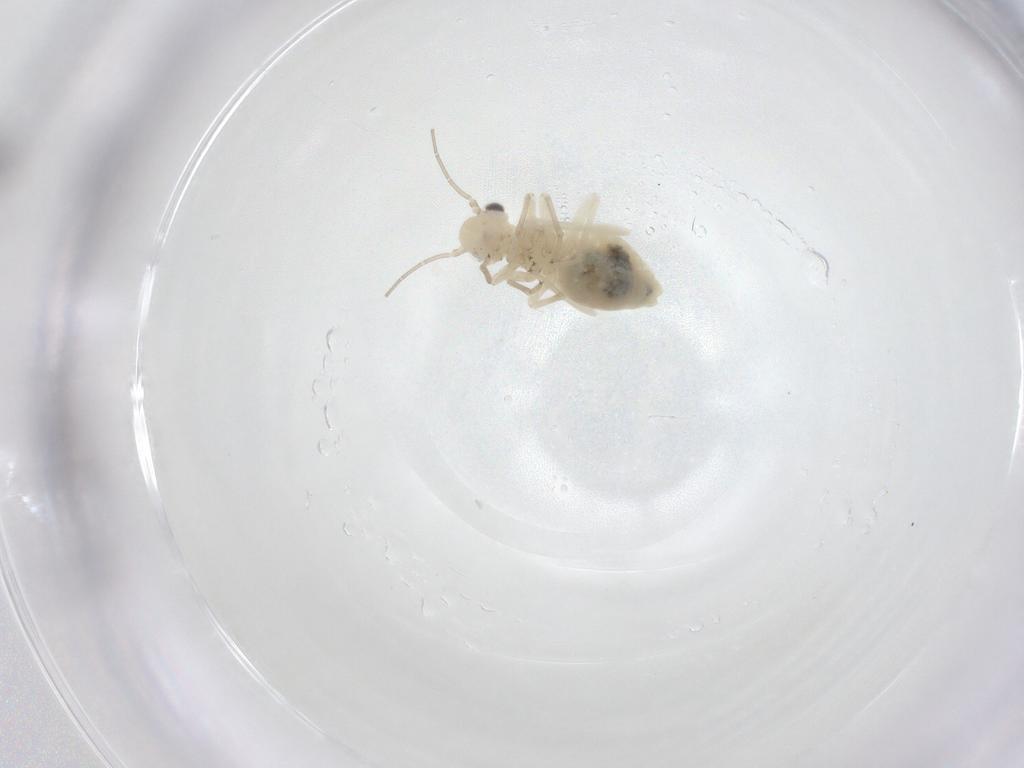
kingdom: Animalia
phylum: Arthropoda
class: Insecta
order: Psocodea
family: Caeciliusidae
